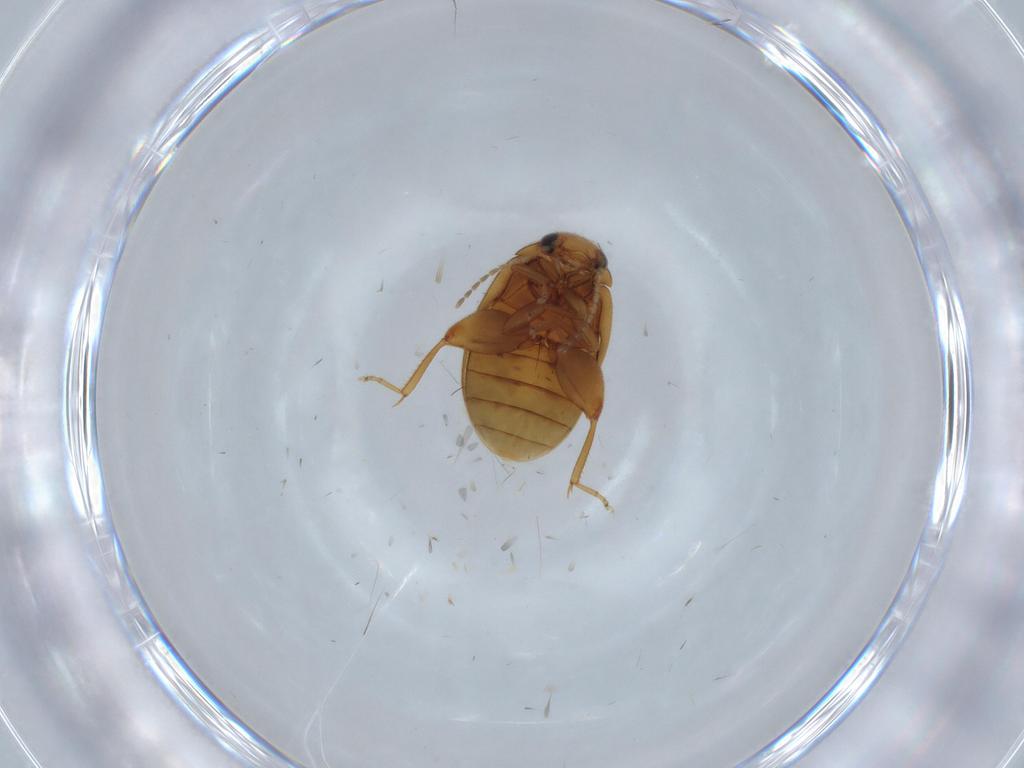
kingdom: Animalia
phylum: Arthropoda
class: Insecta
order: Coleoptera
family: Scirtidae
